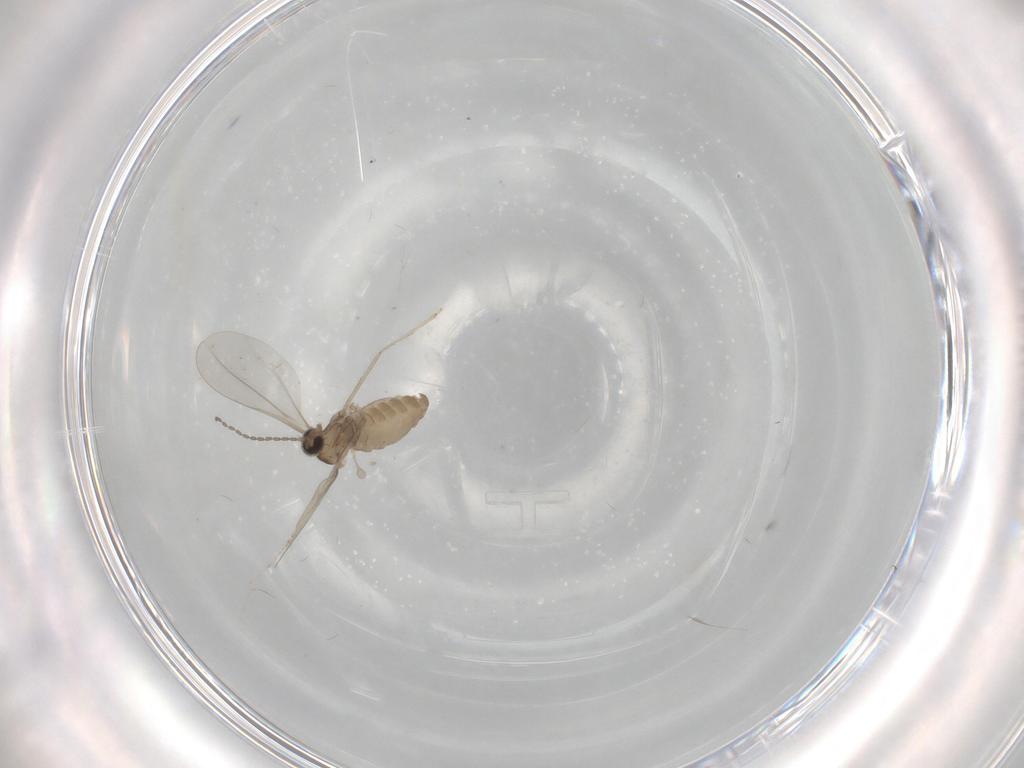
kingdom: Animalia
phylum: Arthropoda
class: Insecta
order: Diptera
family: Cecidomyiidae
